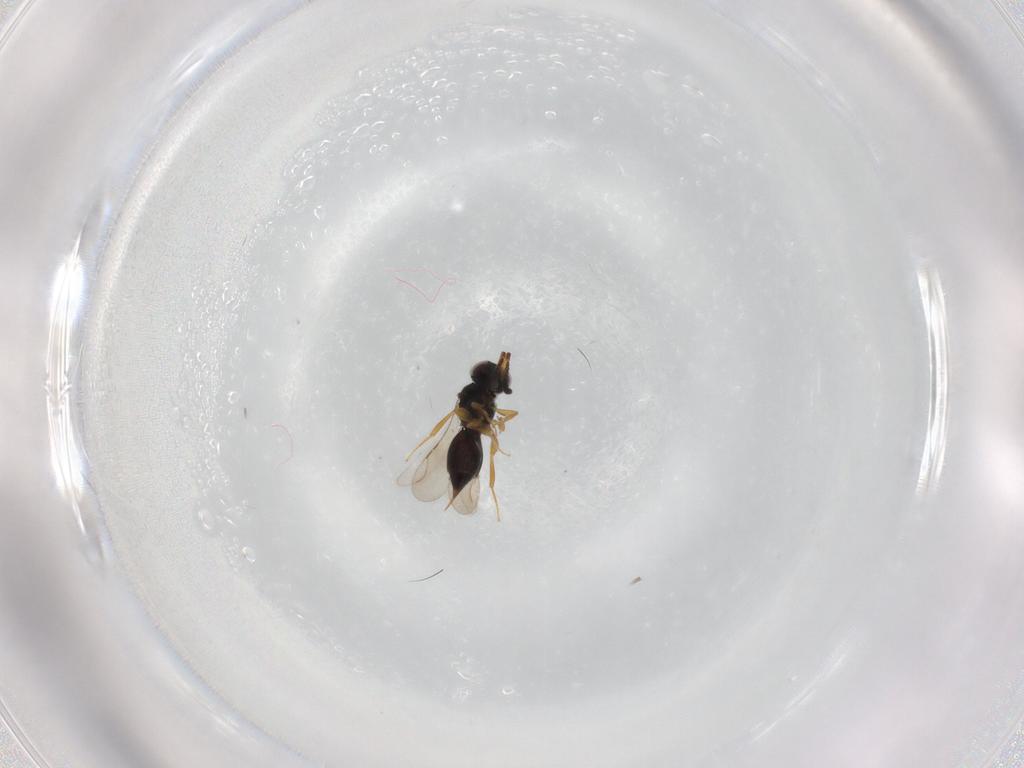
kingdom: Animalia
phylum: Arthropoda
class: Insecta
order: Hymenoptera
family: Ceraphronidae
